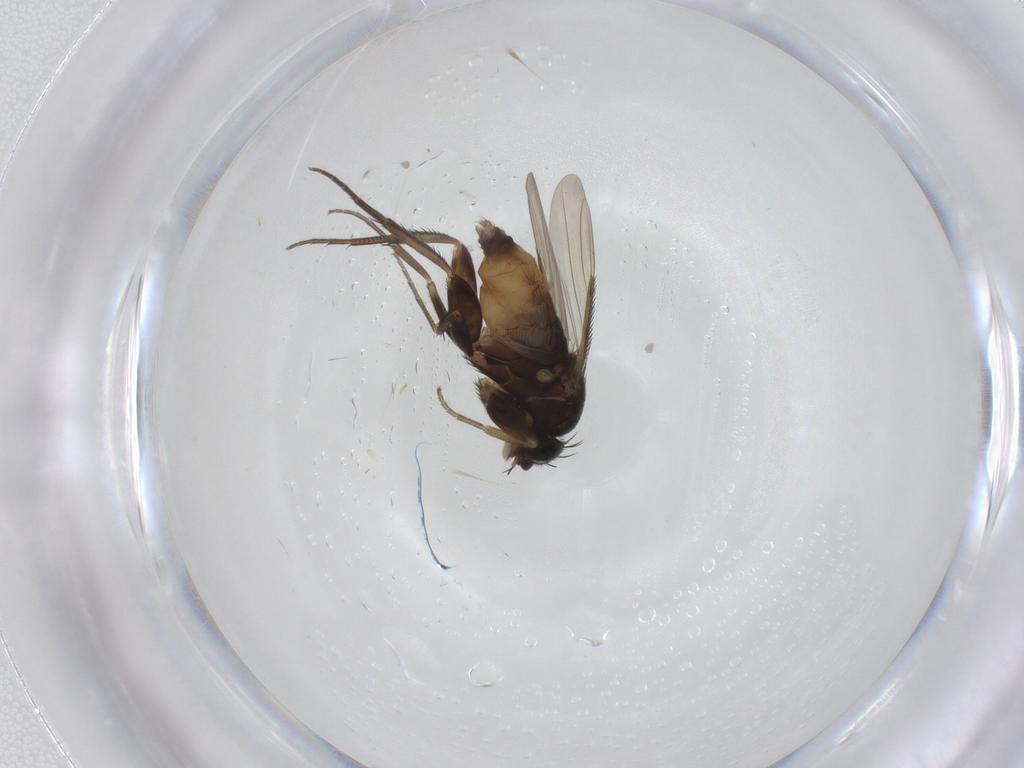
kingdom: Animalia
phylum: Arthropoda
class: Insecta
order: Diptera
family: Phoridae
